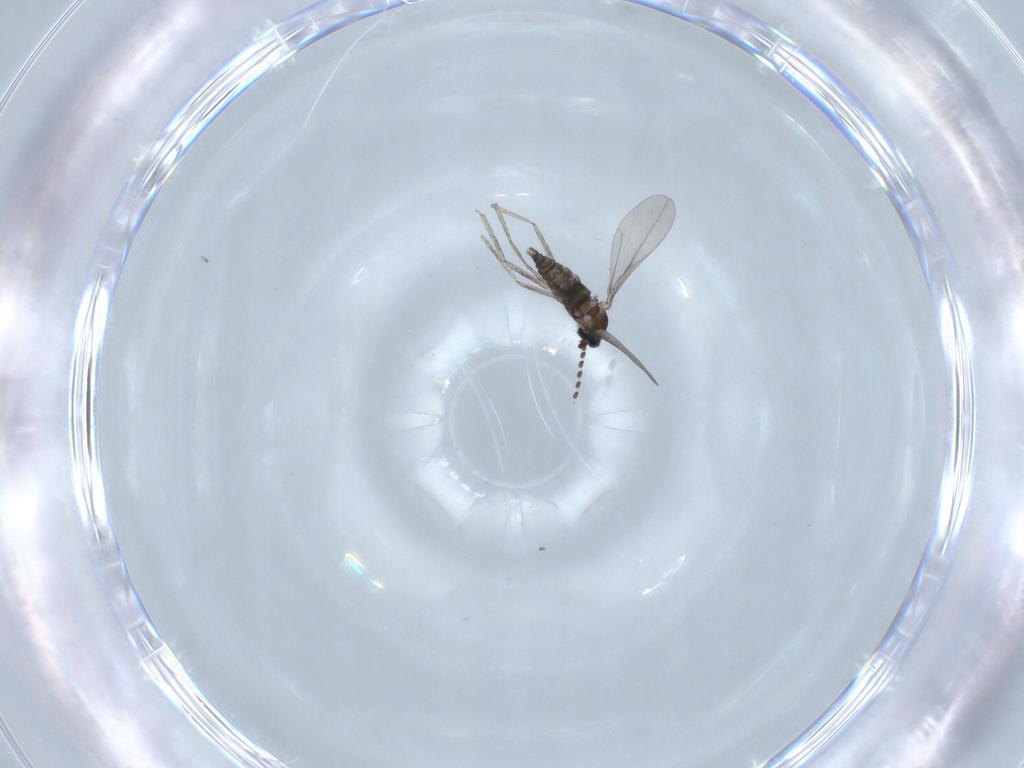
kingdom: Animalia
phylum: Arthropoda
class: Insecta
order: Diptera
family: Cecidomyiidae
